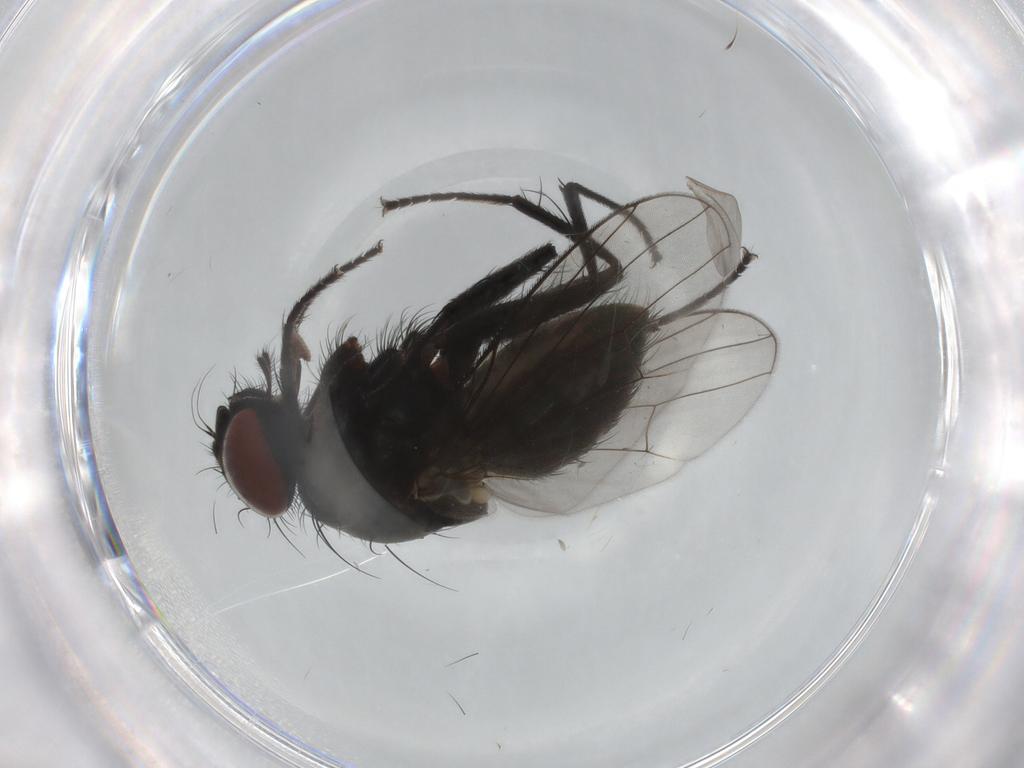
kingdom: Animalia
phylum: Arthropoda
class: Insecta
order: Diptera
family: Muscidae
